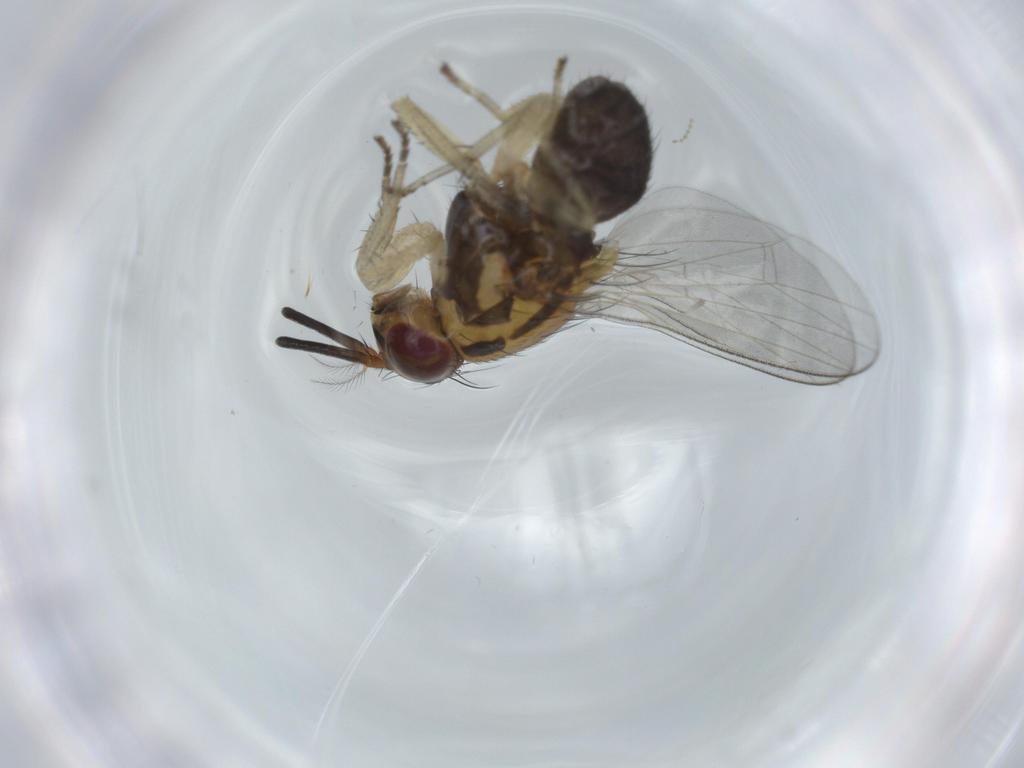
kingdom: Animalia
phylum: Arthropoda
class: Insecta
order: Diptera
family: Lauxaniidae
